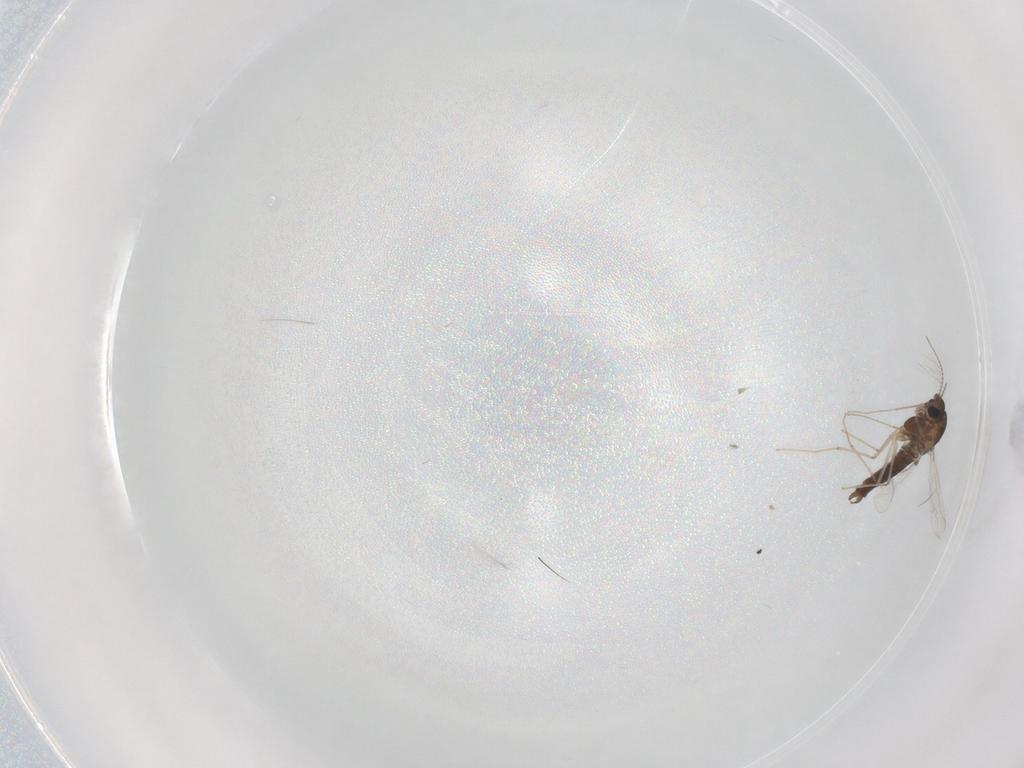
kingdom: Animalia
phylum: Arthropoda
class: Insecta
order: Diptera
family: Chironomidae
